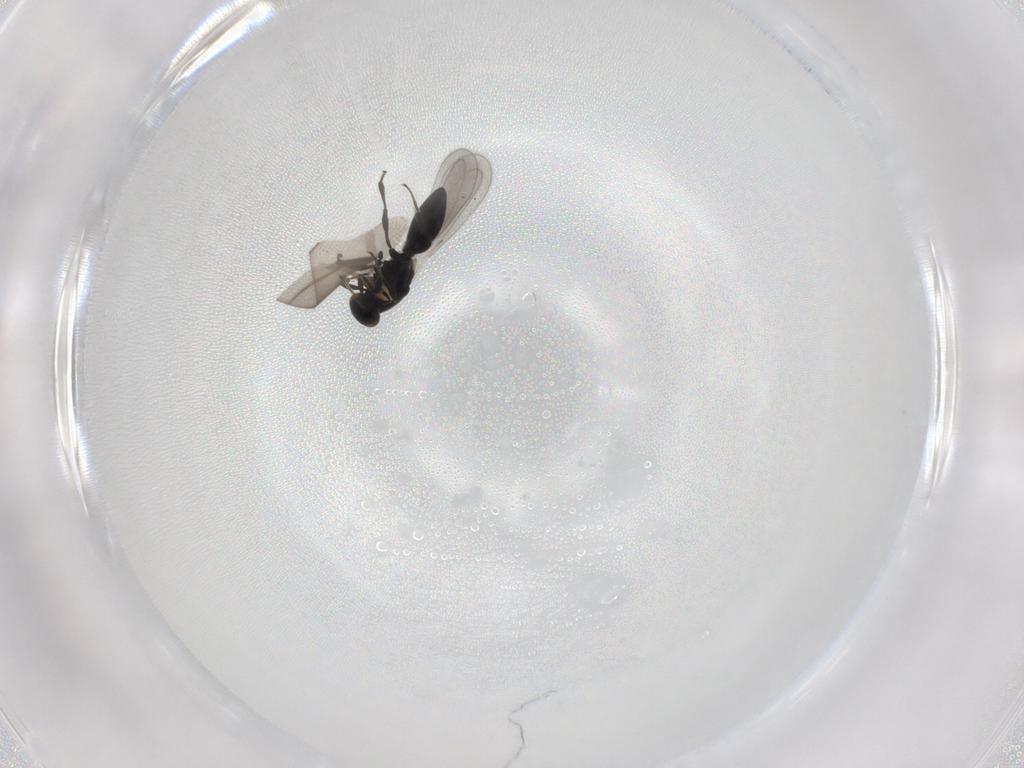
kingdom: Animalia
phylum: Arthropoda
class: Insecta
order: Hymenoptera
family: Platygastridae
